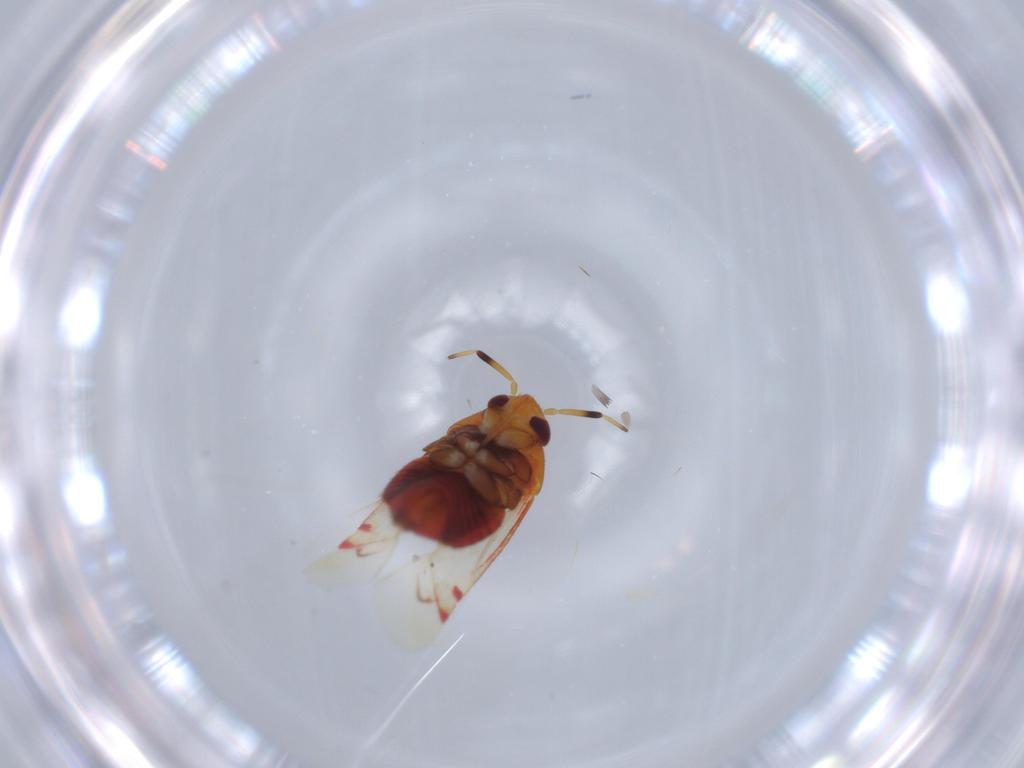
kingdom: Animalia
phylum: Arthropoda
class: Insecta
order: Hemiptera
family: Miridae
